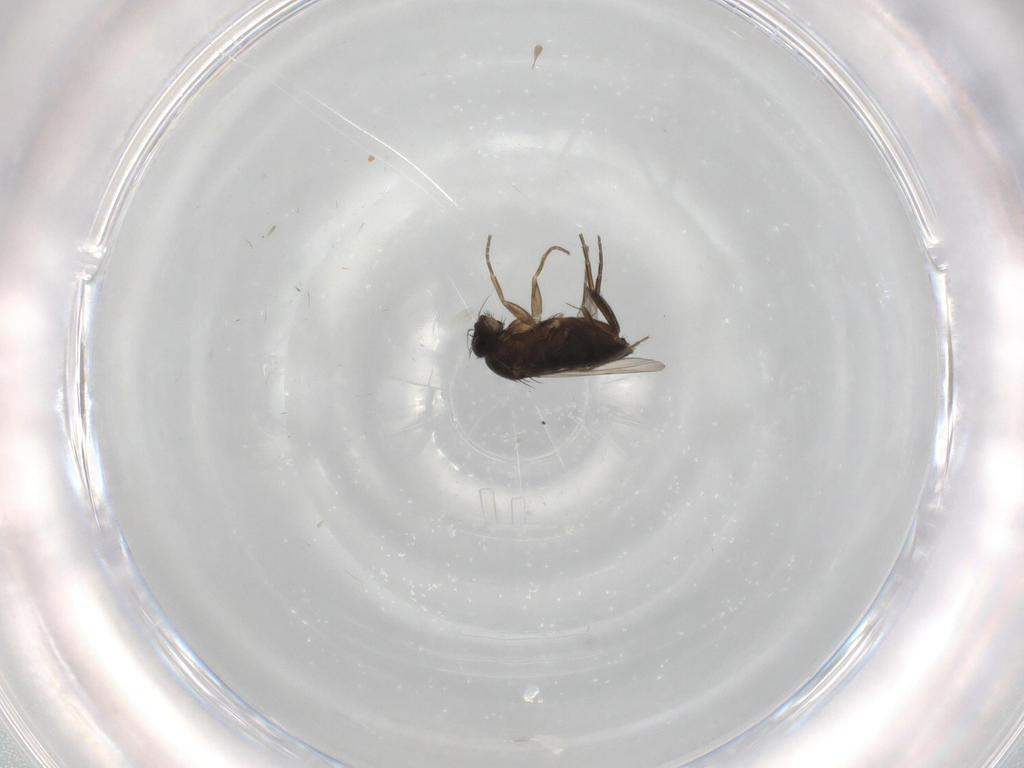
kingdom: Animalia
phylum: Arthropoda
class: Insecta
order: Diptera
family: Phoridae
